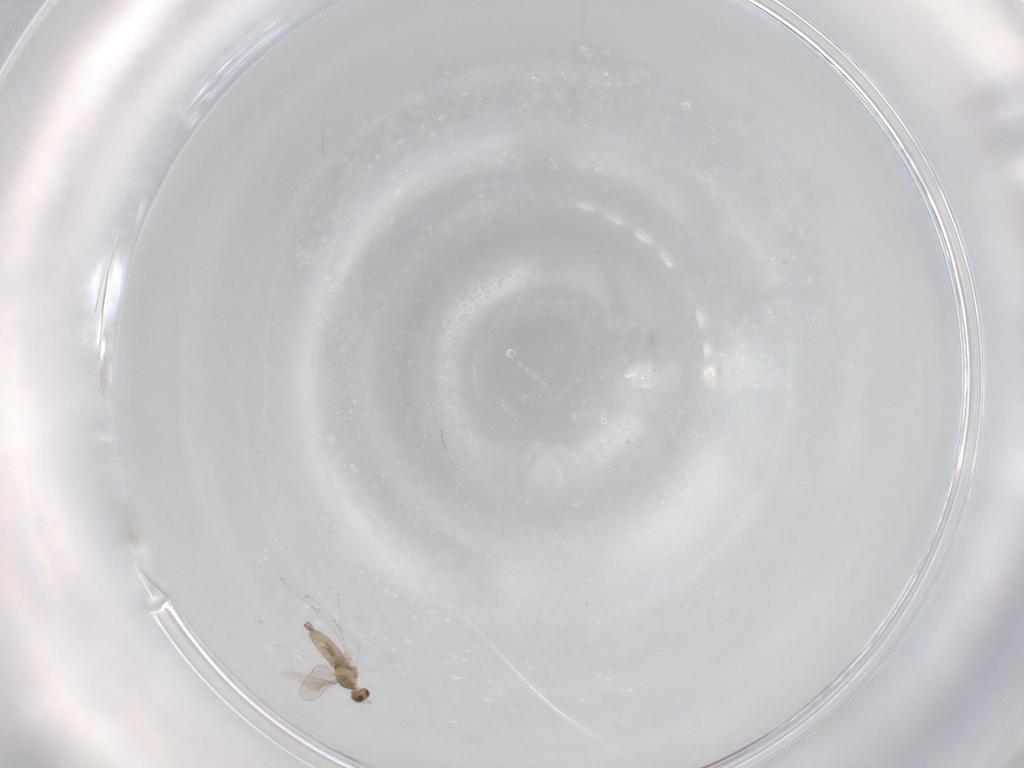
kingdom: Animalia
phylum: Arthropoda
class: Insecta
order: Diptera
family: Cecidomyiidae
